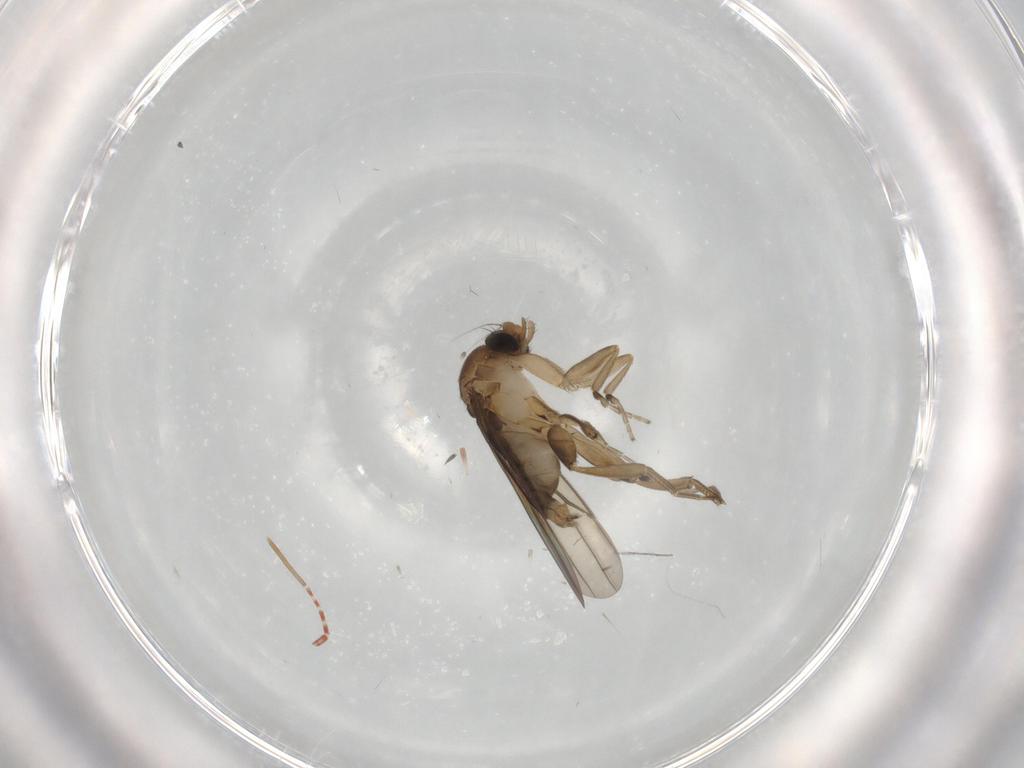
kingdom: Animalia
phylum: Arthropoda
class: Insecta
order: Diptera
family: Sphaeroceridae
